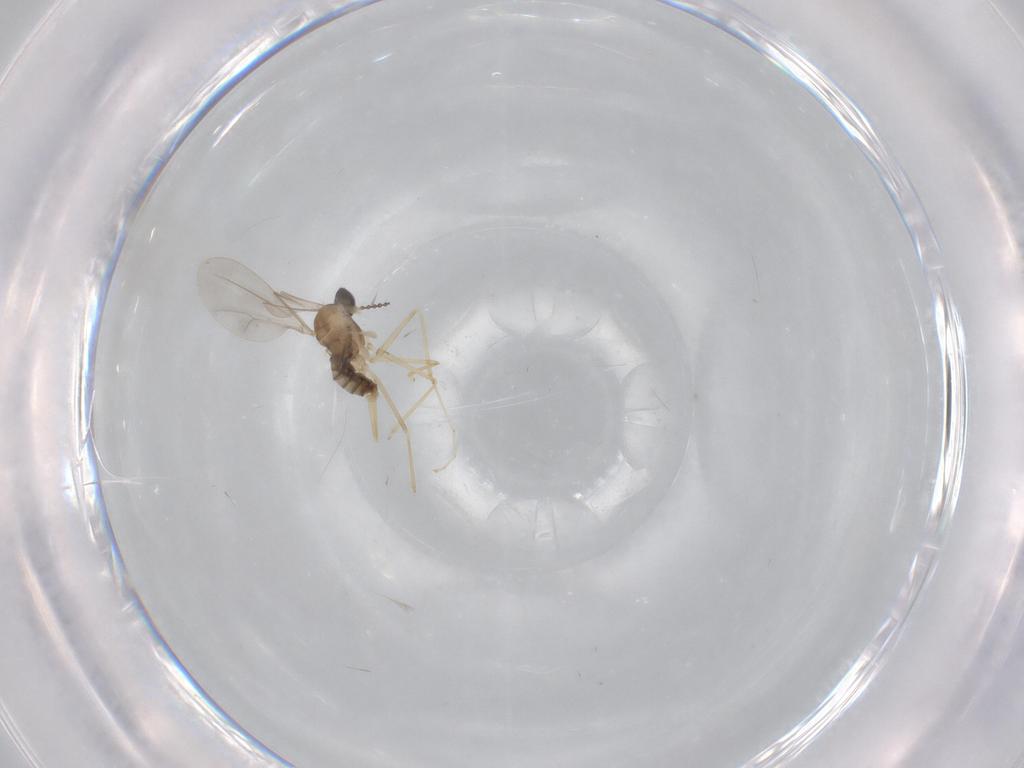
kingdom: Animalia
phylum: Arthropoda
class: Insecta
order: Diptera
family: Cecidomyiidae
